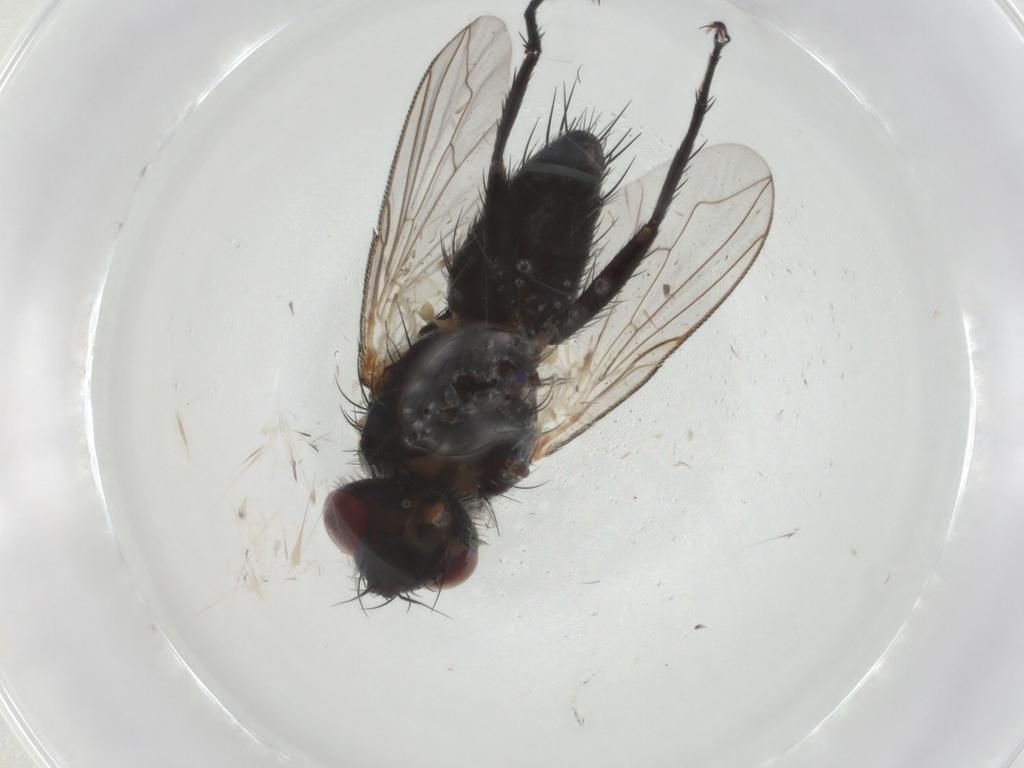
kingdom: Animalia
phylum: Arthropoda
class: Insecta
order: Diptera
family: Tachinidae
